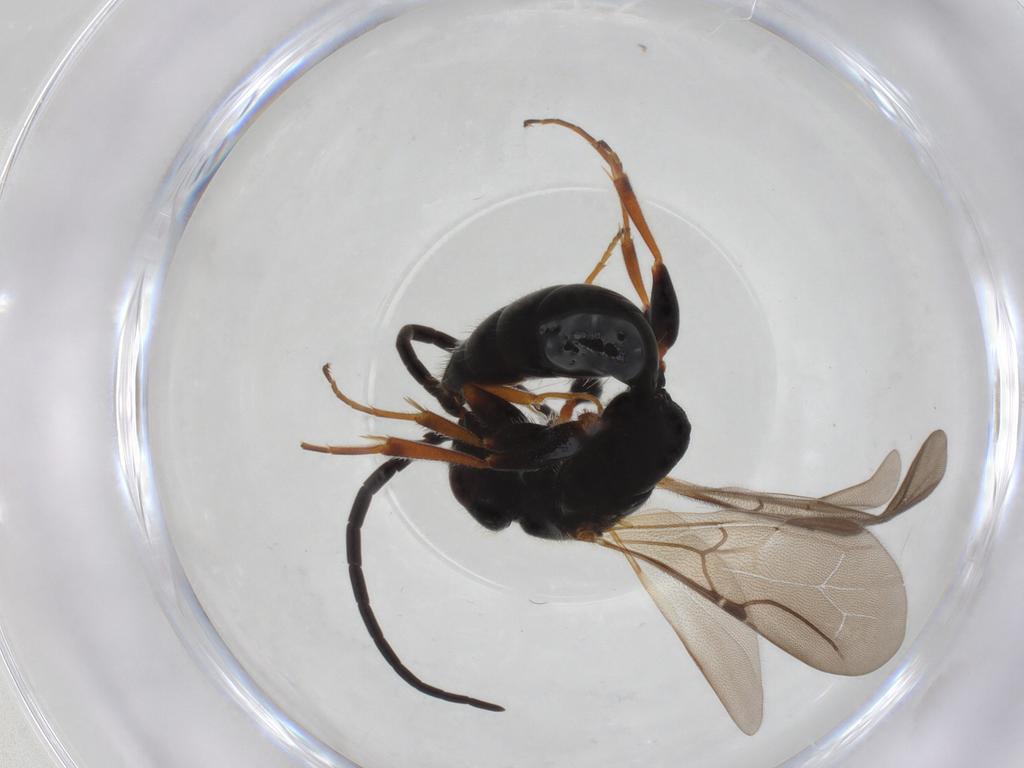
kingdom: Animalia
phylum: Arthropoda
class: Insecta
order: Hymenoptera
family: Bethylidae
